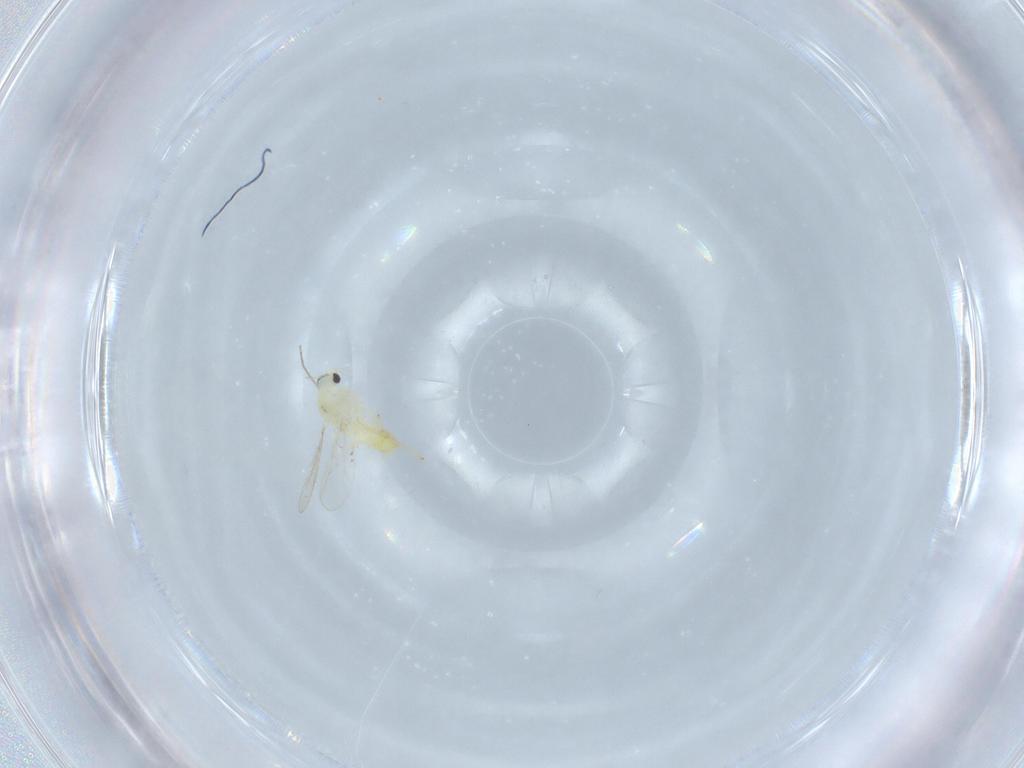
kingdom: Animalia
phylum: Arthropoda
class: Insecta
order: Diptera
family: Chironomidae
